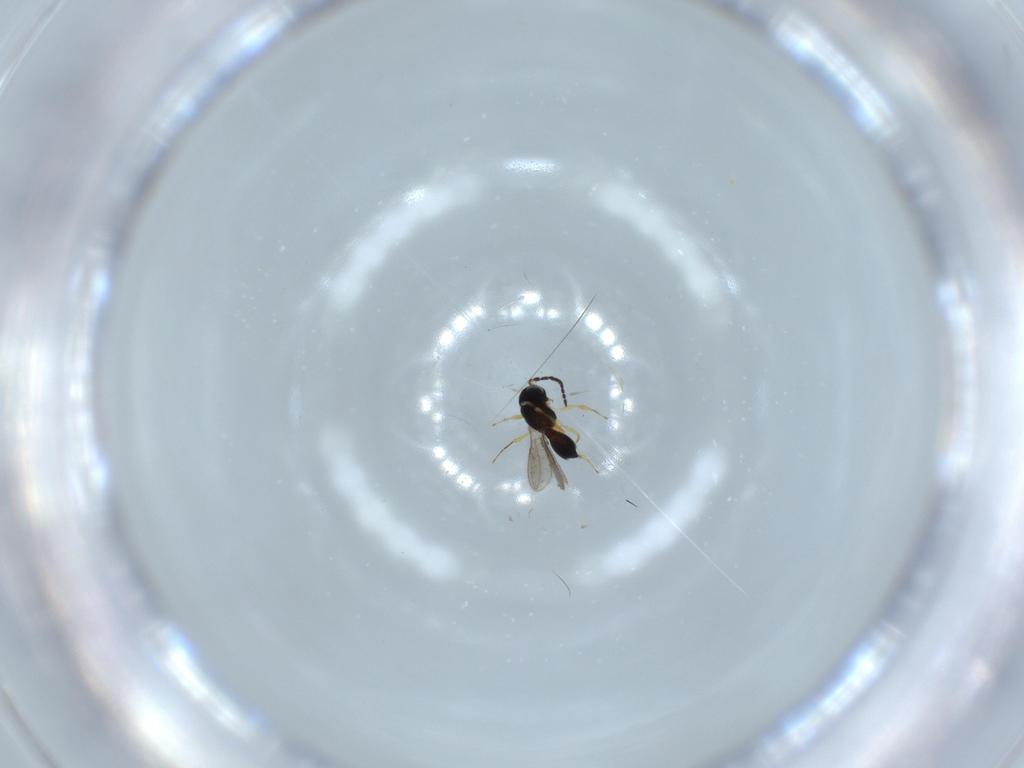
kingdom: Animalia
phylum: Arthropoda
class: Insecta
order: Hymenoptera
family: Scelionidae
